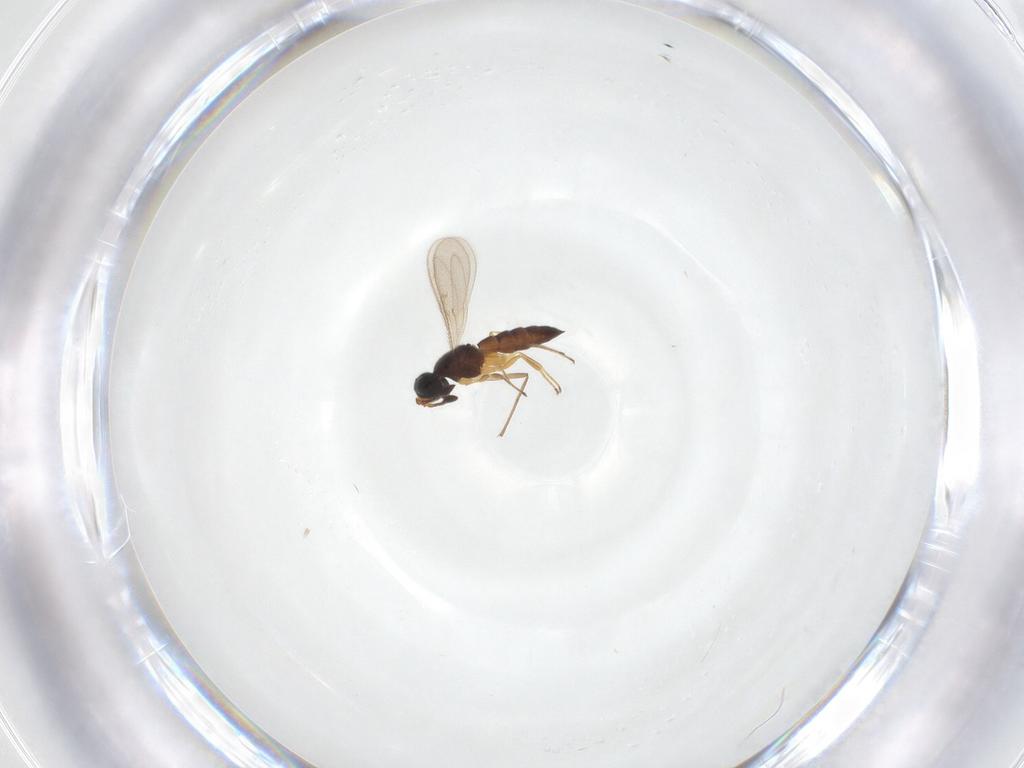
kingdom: Animalia
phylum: Arthropoda
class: Insecta
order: Hymenoptera
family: Scelionidae
